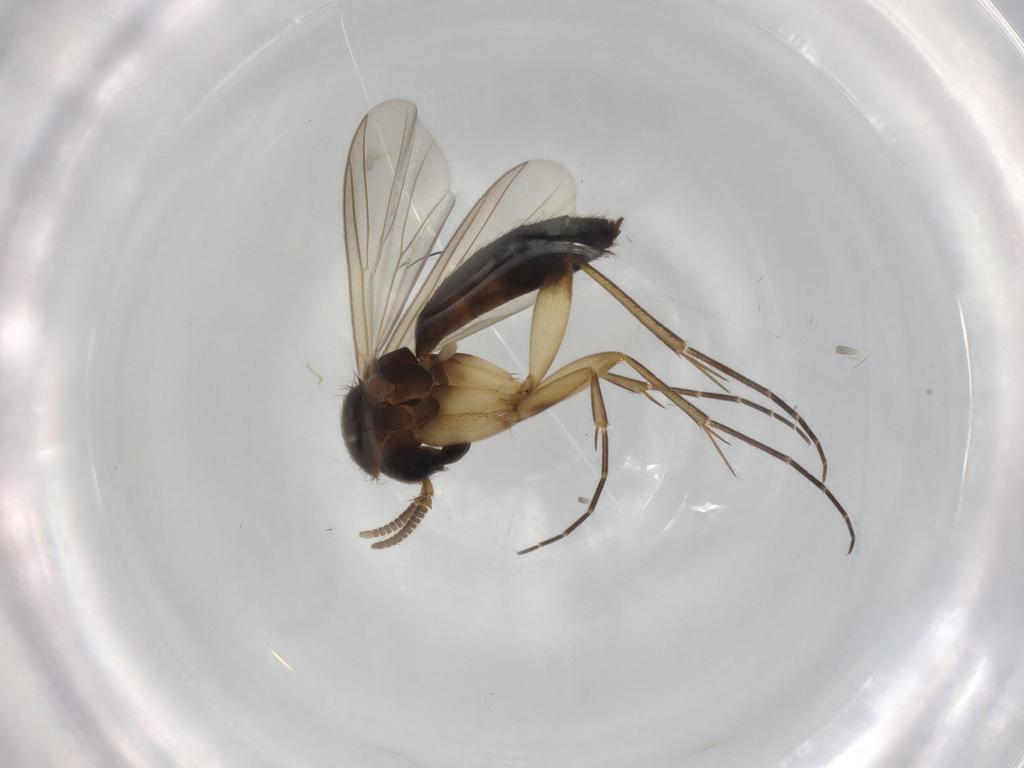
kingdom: Animalia
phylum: Arthropoda
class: Insecta
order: Diptera
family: Mycetophilidae
